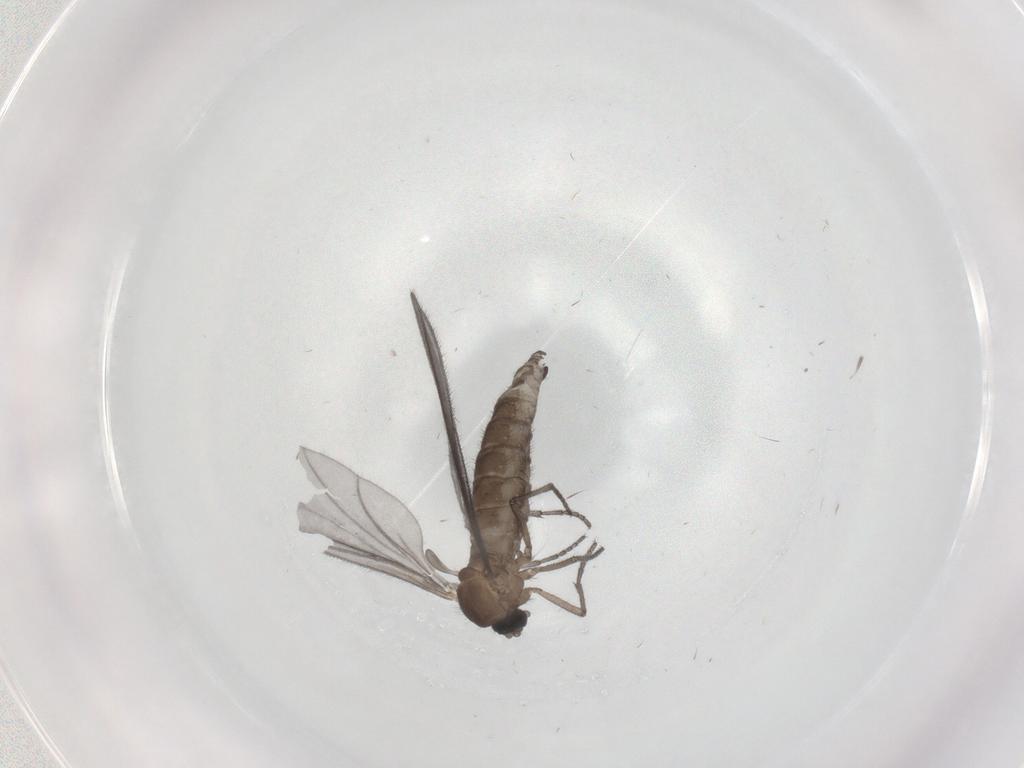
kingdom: Animalia
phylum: Arthropoda
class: Insecta
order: Diptera
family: Sciaridae
